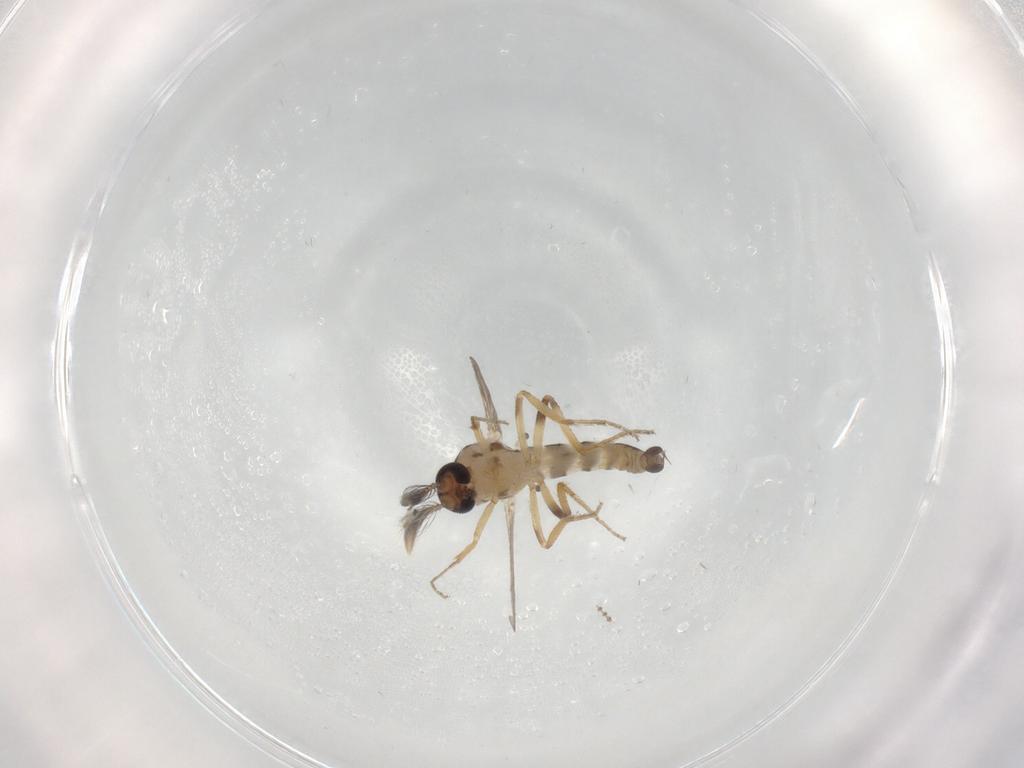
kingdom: Animalia
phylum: Arthropoda
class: Insecta
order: Diptera
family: Ceratopogonidae
